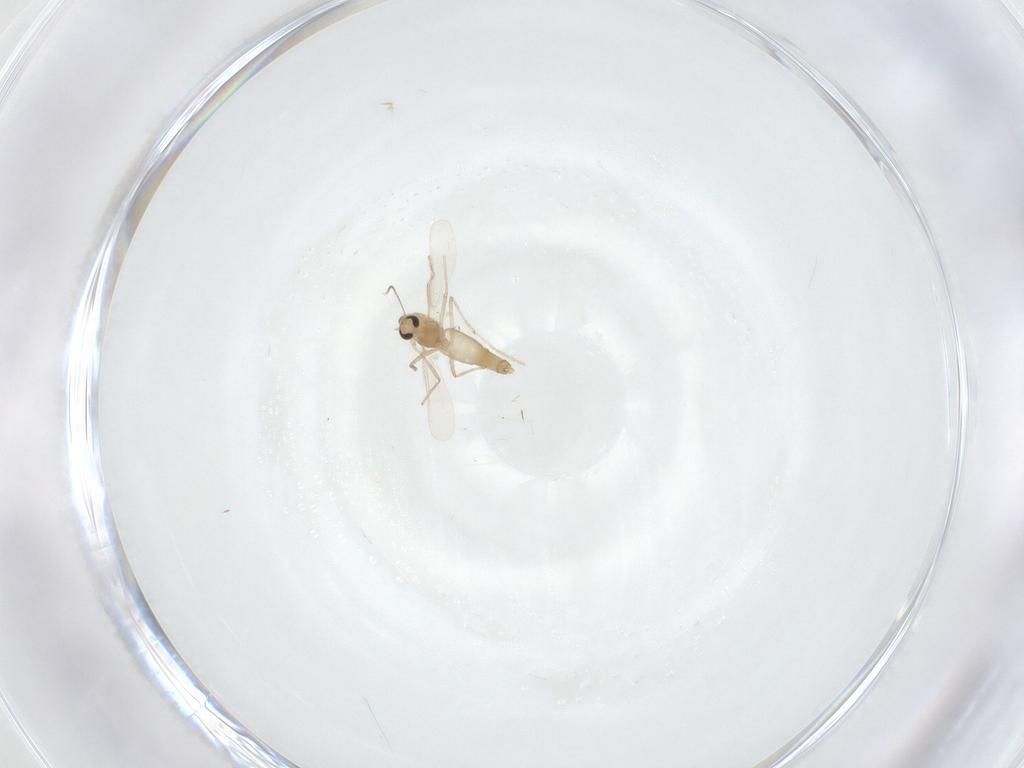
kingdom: Animalia
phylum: Arthropoda
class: Insecta
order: Diptera
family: Chironomidae
